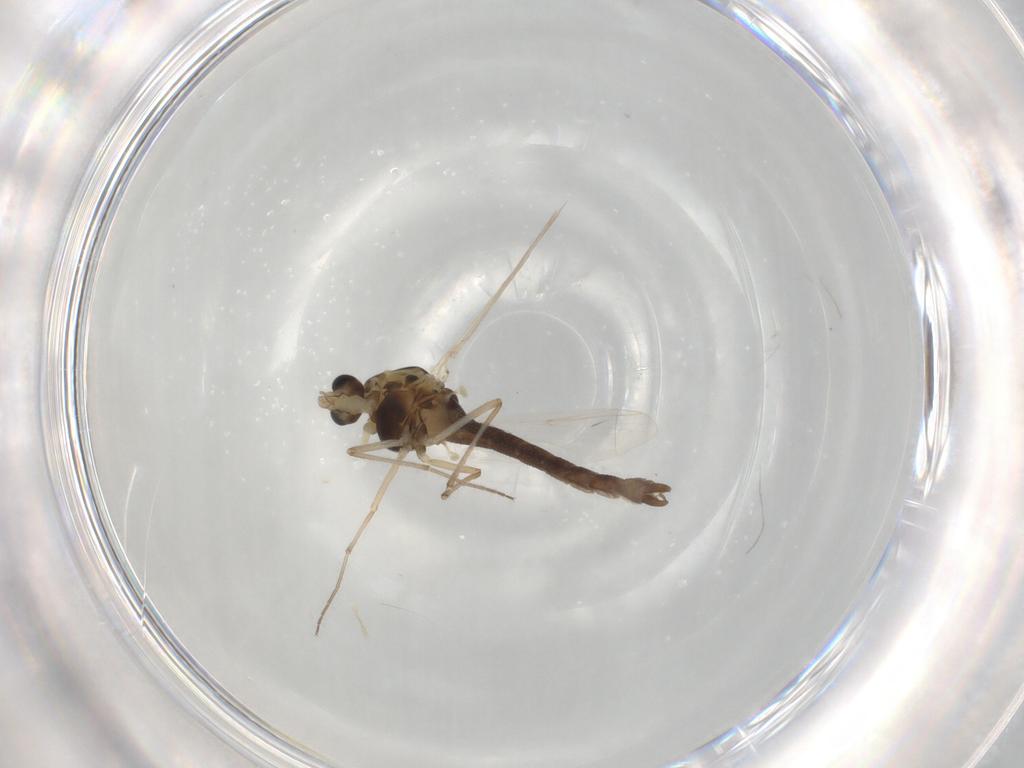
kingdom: Animalia
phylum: Arthropoda
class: Insecta
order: Diptera
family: Chironomidae
